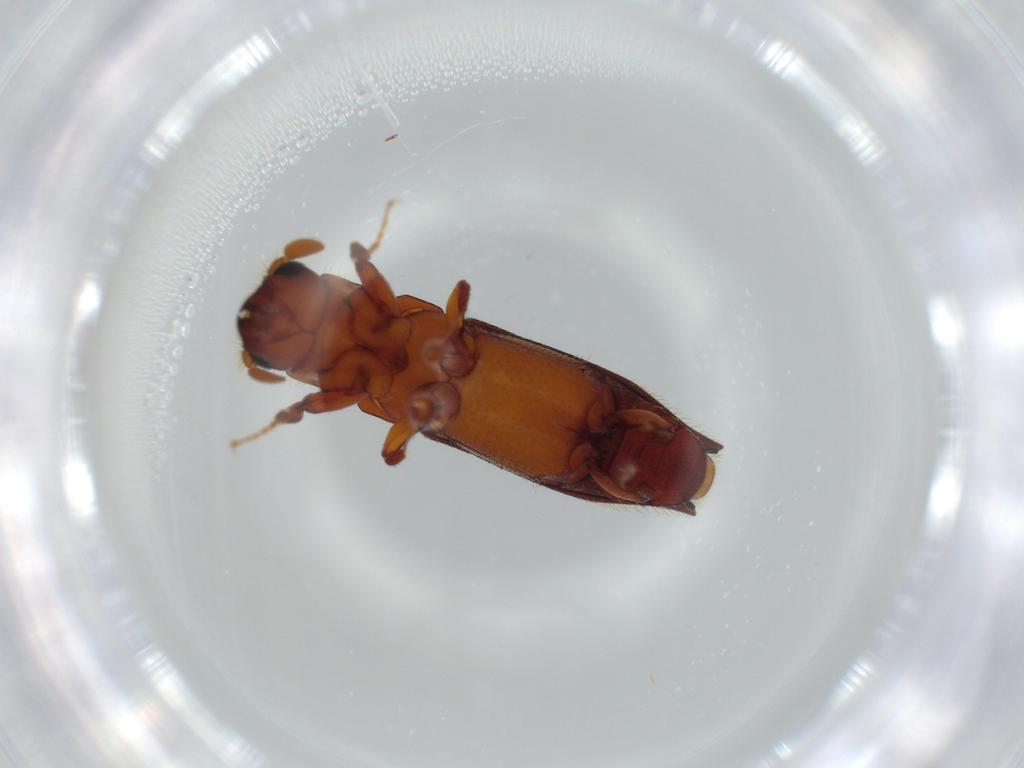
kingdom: Animalia
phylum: Arthropoda
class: Insecta
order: Coleoptera
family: Curculionidae
